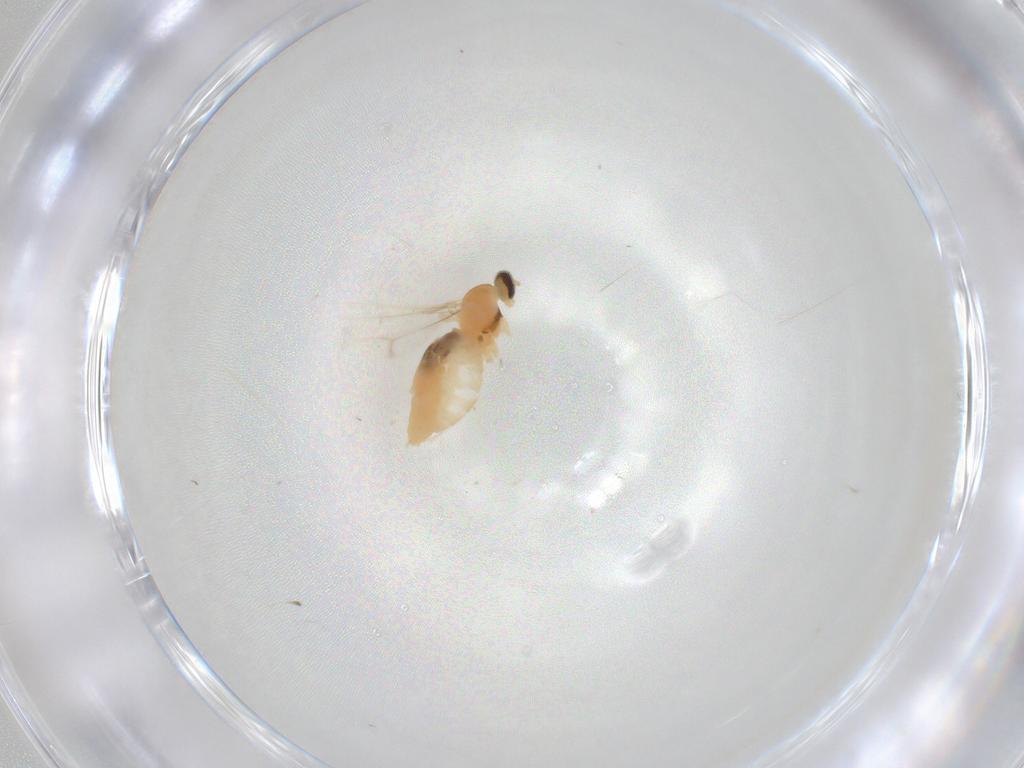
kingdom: Animalia
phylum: Arthropoda
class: Insecta
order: Diptera
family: Cecidomyiidae
